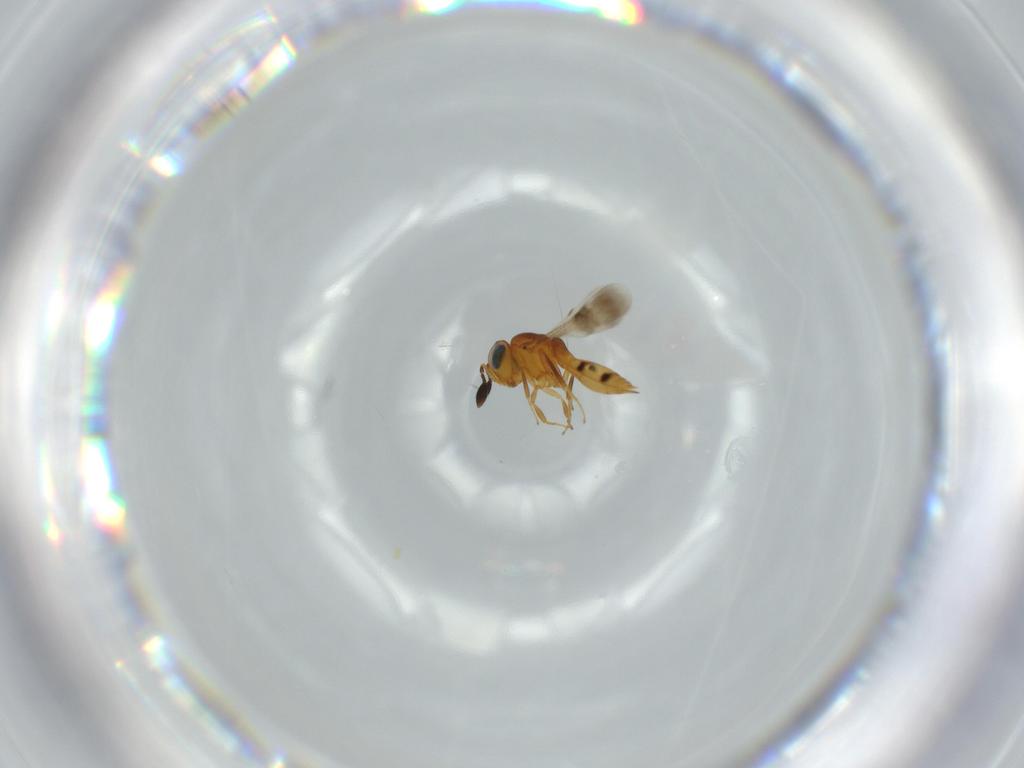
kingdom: Animalia
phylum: Arthropoda
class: Insecta
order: Hymenoptera
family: Scelionidae
